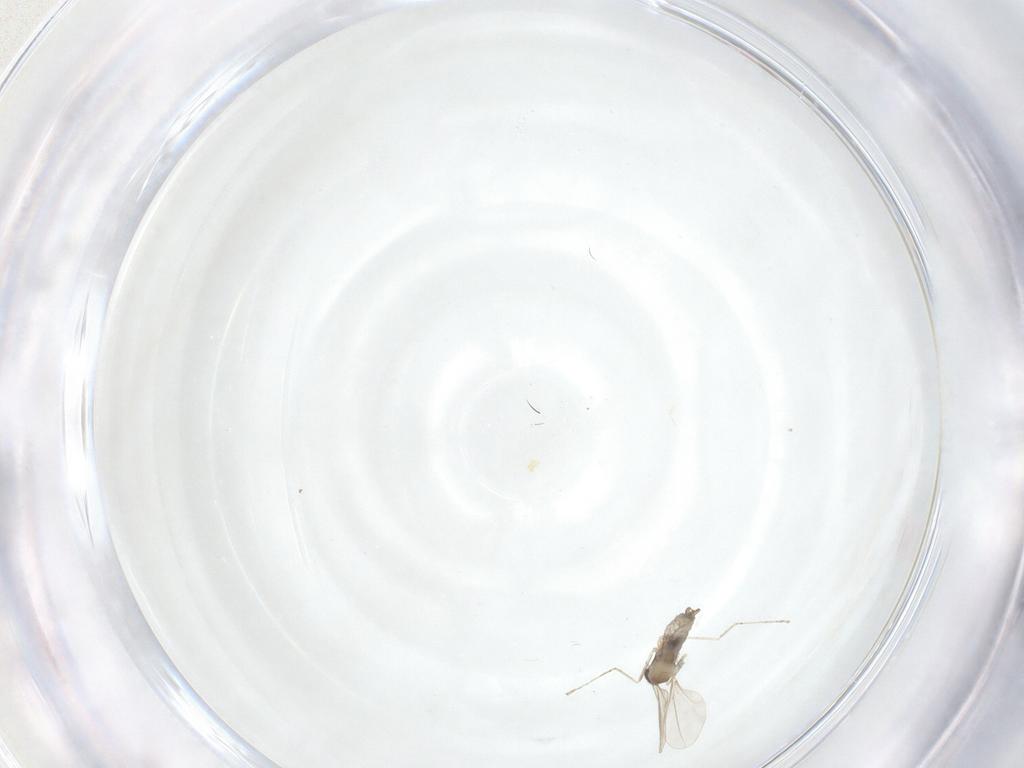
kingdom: Animalia
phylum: Arthropoda
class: Insecta
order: Diptera
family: Cecidomyiidae
